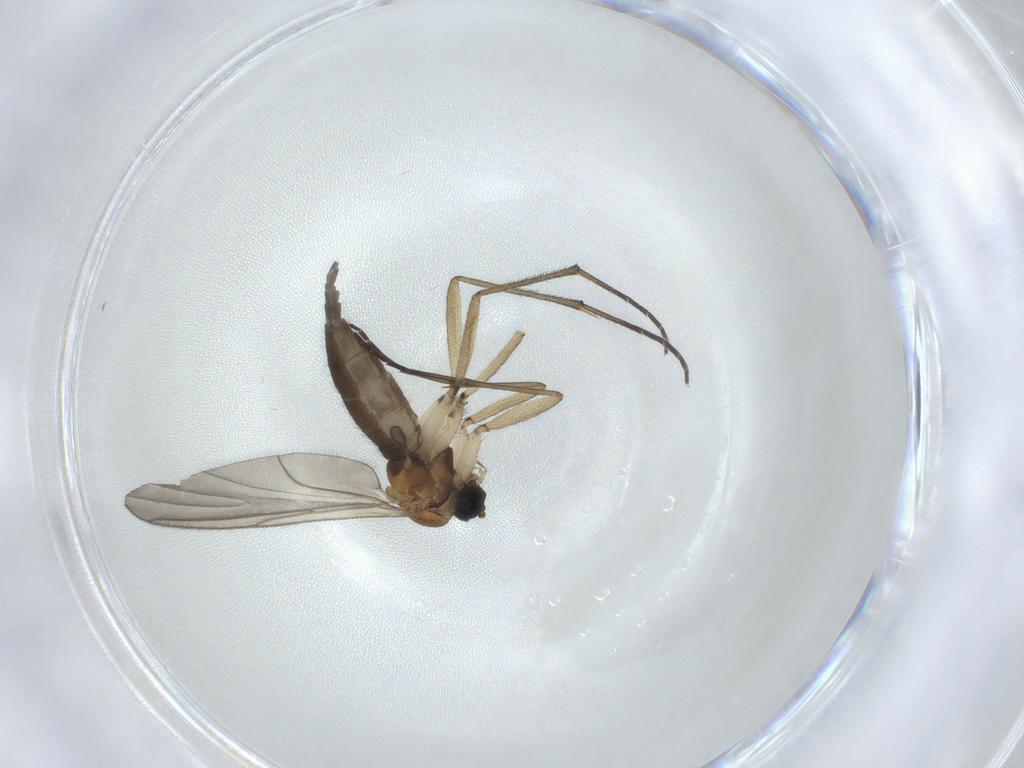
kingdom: Animalia
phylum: Arthropoda
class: Insecta
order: Diptera
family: Sciaridae
